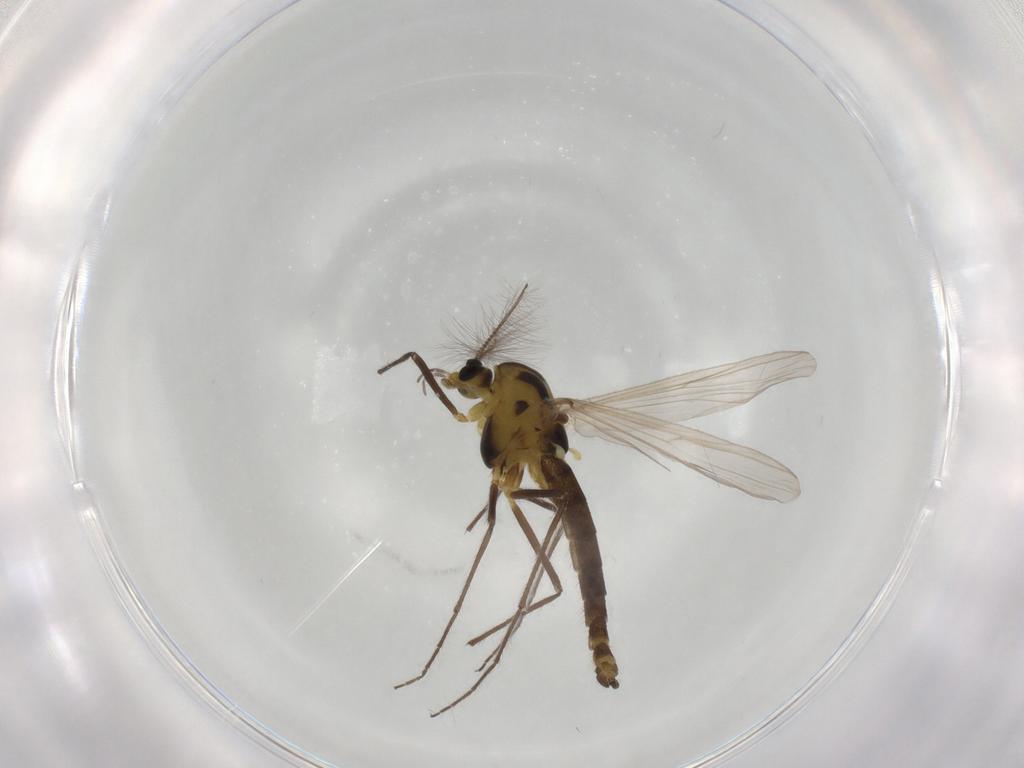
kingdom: Animalia
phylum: Arthropoda
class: Insecta
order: Diptera
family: Chironomidae
